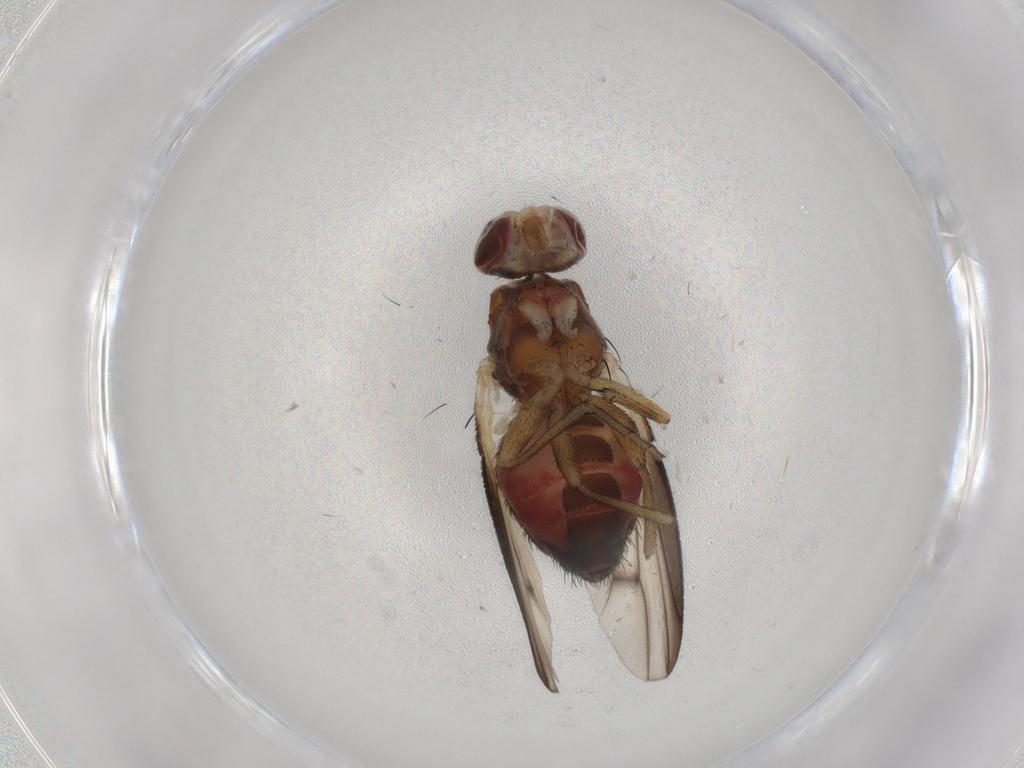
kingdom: Animalia
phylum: Arthropoda
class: Insecta
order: Diptera
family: Heleomyzidae
